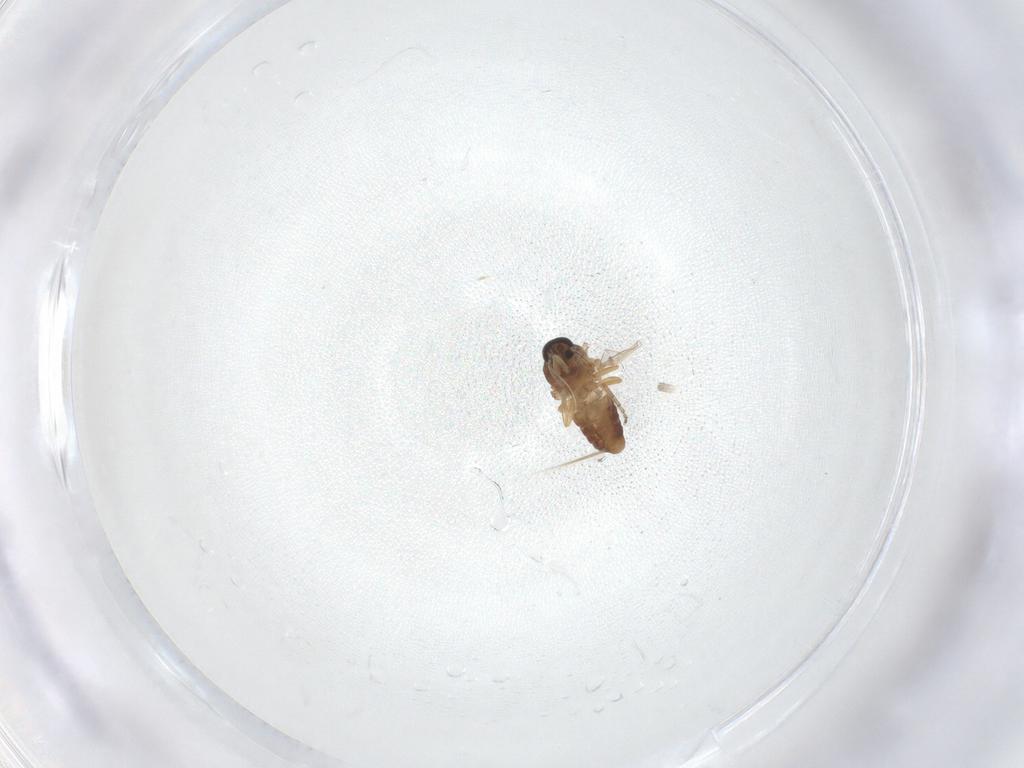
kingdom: Animalia
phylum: Arthropoda
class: Insecta
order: Diptera
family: Ceratopogonidae
